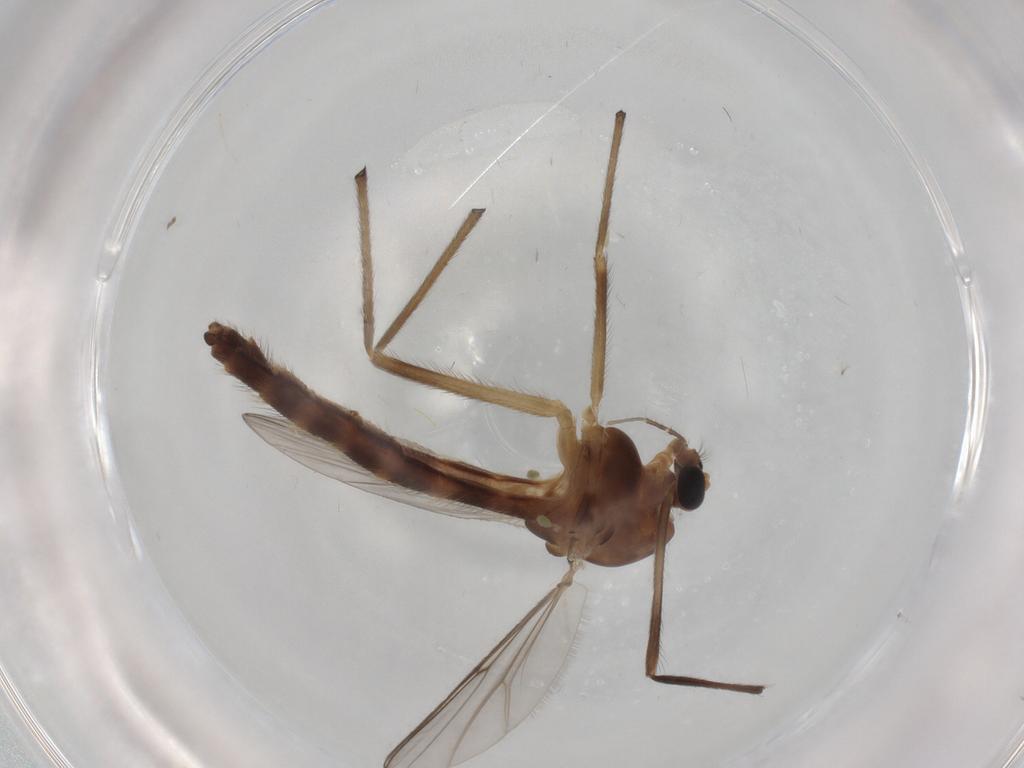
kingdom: Animalia
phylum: Arthropoda
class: Insecta
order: Diptera
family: Chironomidae
